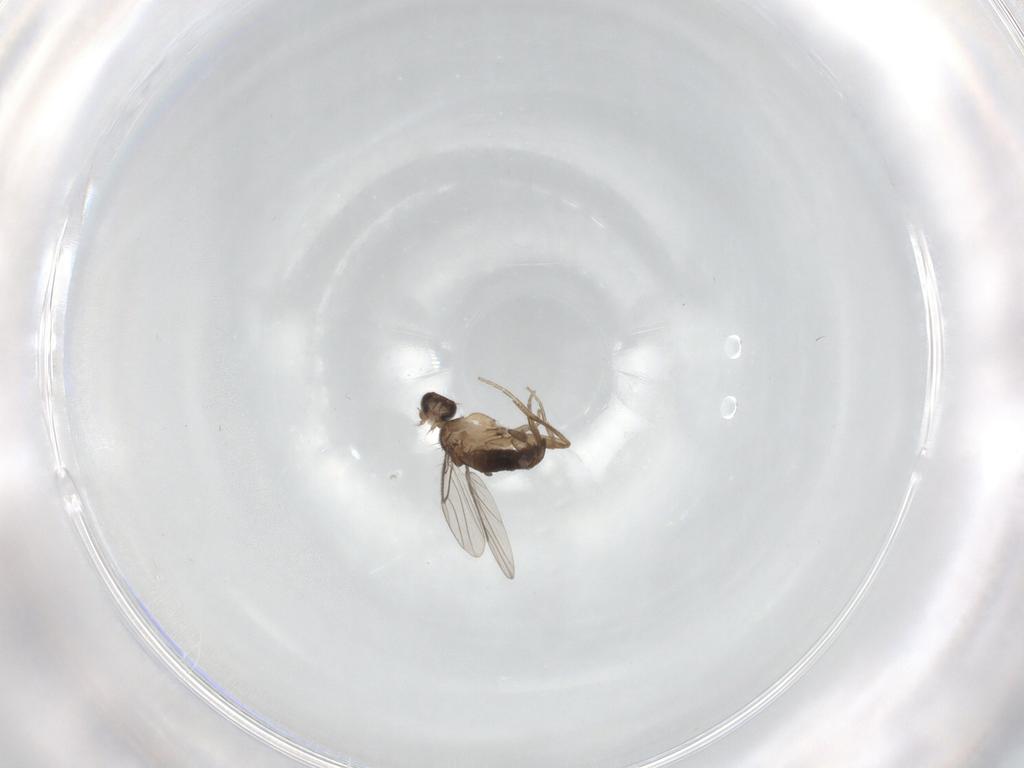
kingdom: Animalia
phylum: Arthropoda
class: Insecta
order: Diptera
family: Phoridae
